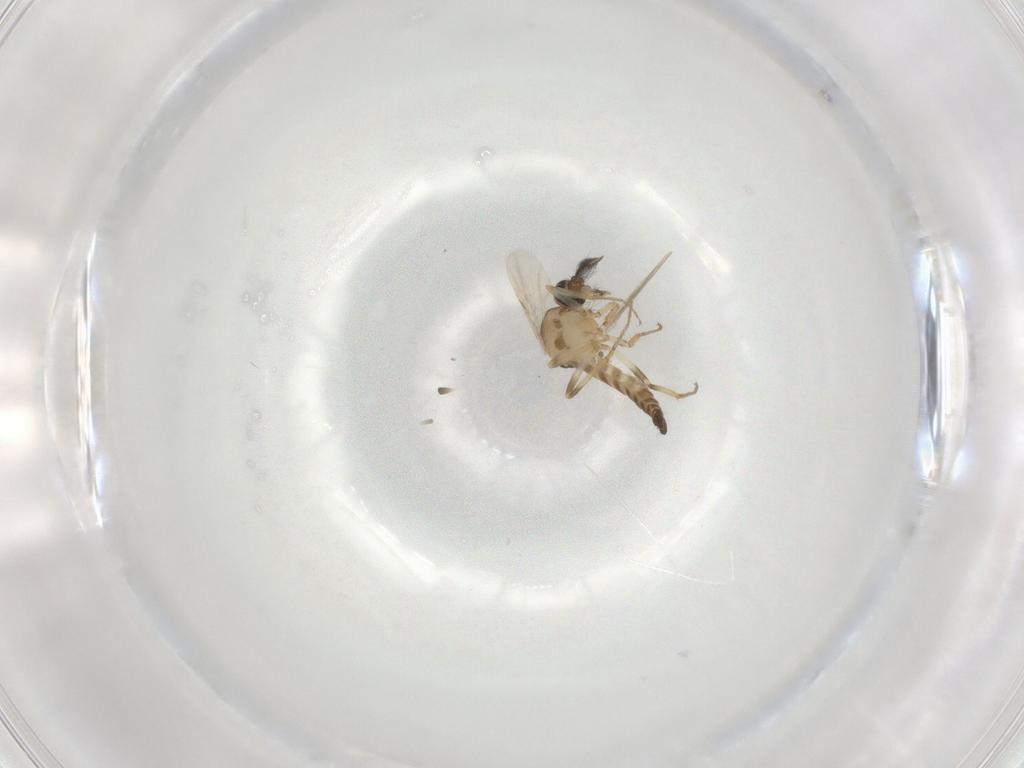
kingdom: Animalia
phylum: Arthropoda
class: Insecta
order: Diptera
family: Ceratopogonidae
